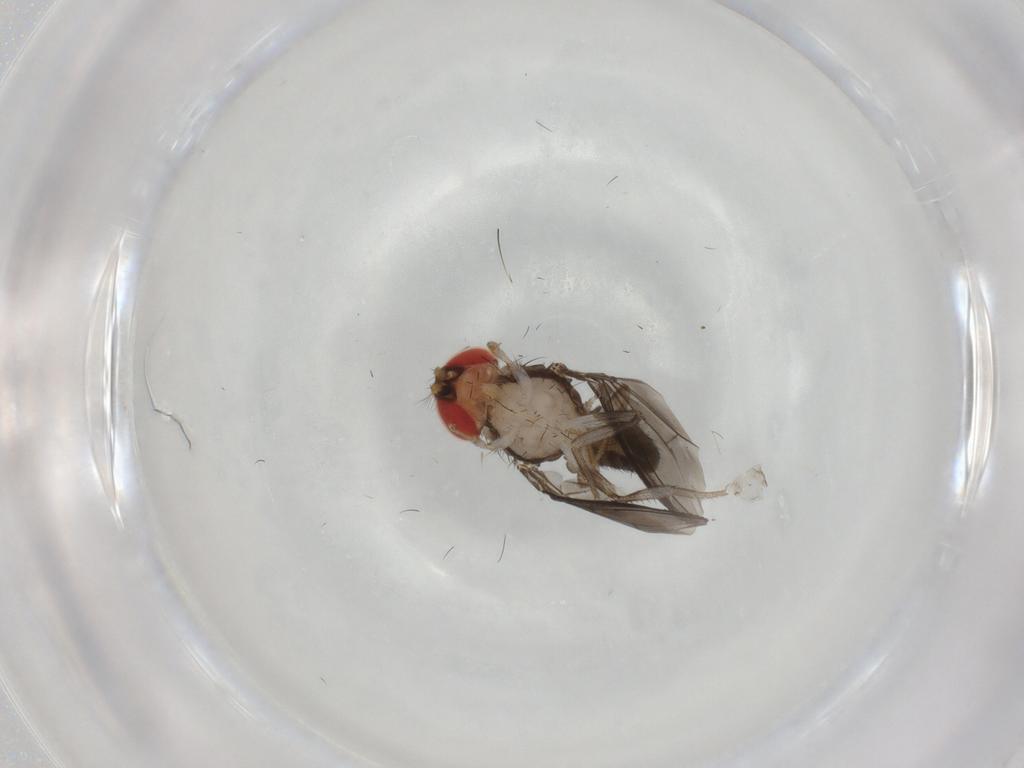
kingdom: Animalia
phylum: Arthropoda
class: Insecta
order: Diptera
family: Drosophilidae
